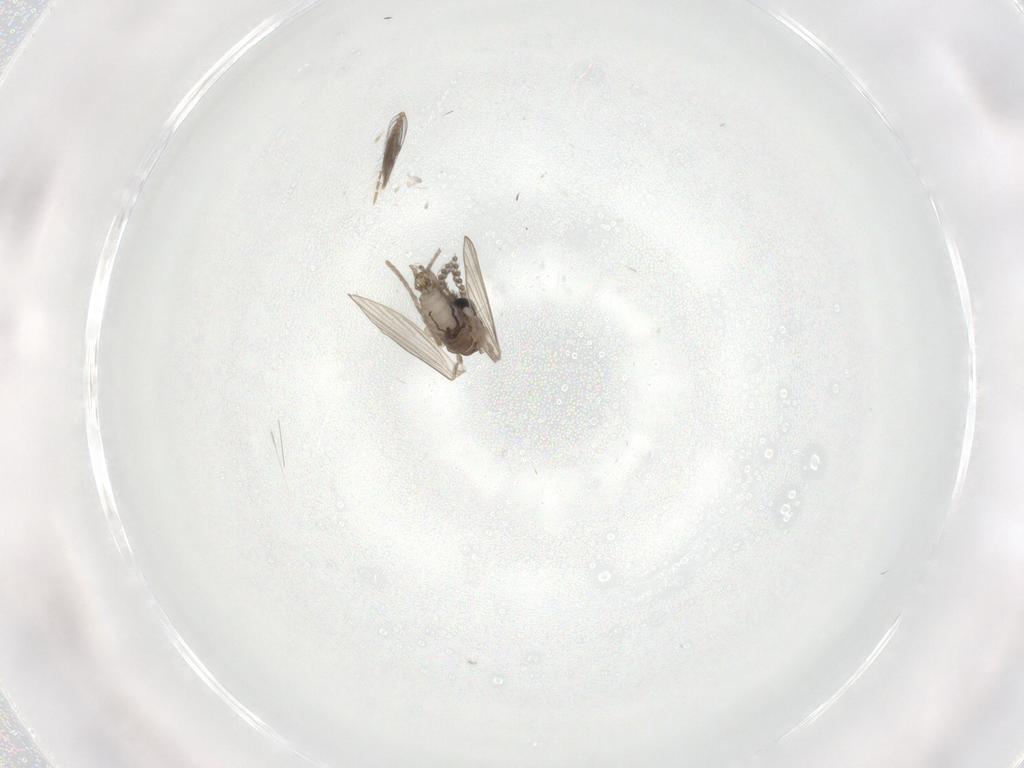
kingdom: Animalia
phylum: Arthropoda
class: Insecta
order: Diptera
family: Psychodidae
